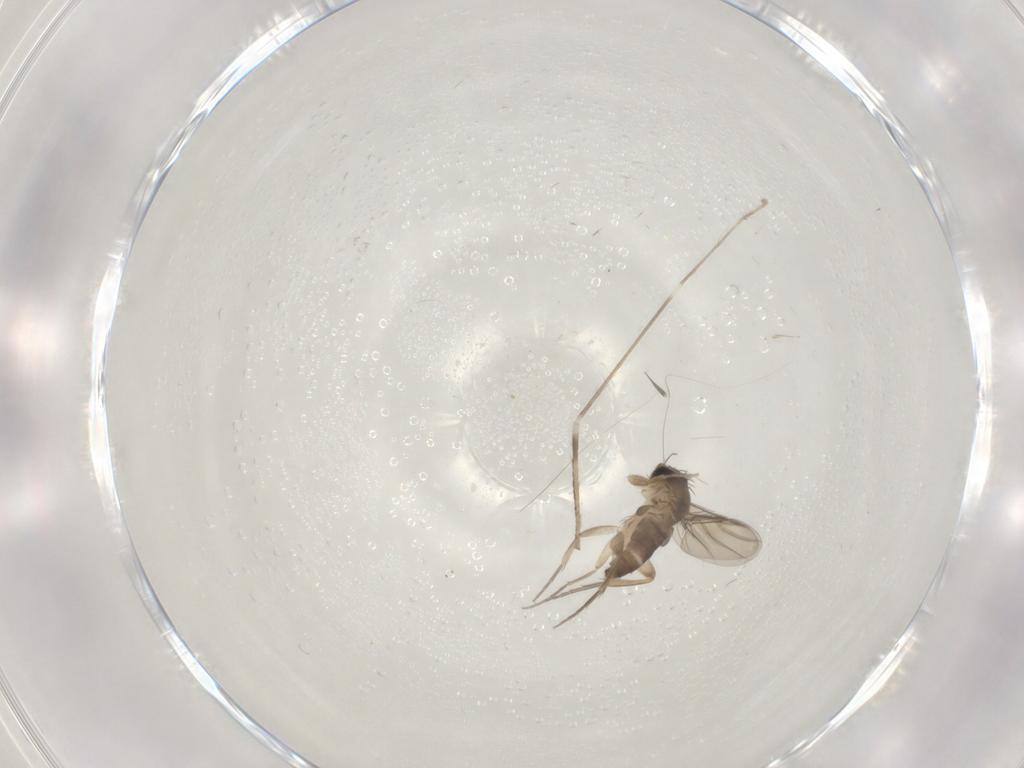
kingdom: Animalia
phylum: Arthropoda
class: Insecta
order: Diptera
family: Phoridae
